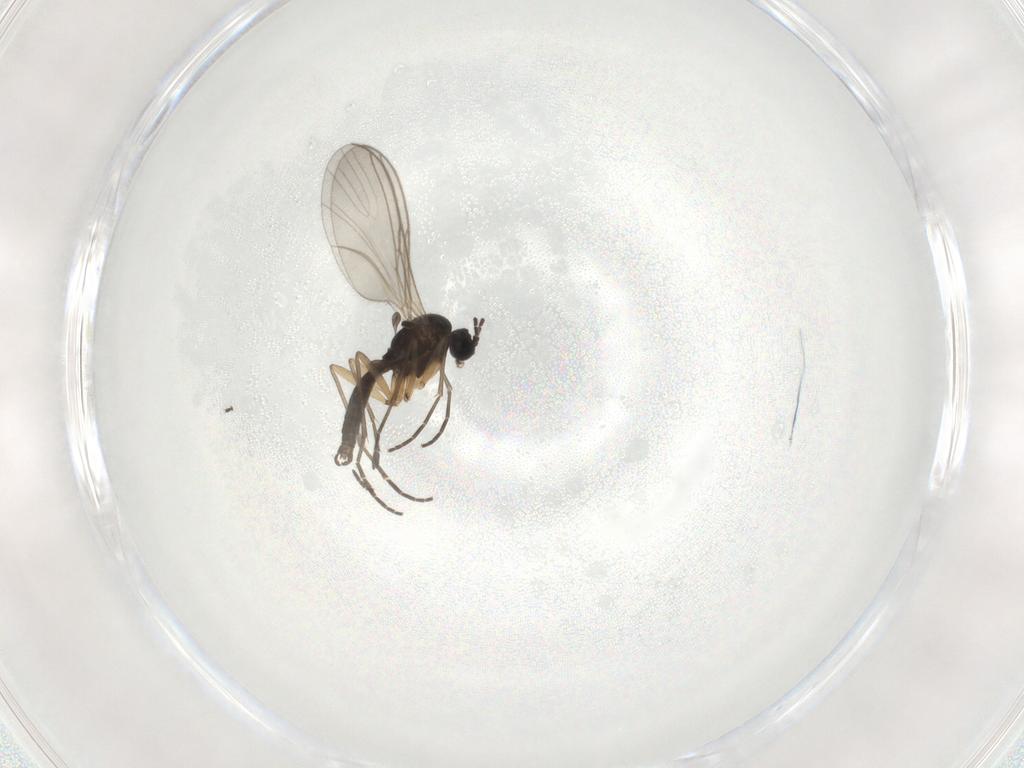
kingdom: Animalia
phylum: Arthropoda
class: Insecta
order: Diptera
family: Sciaridae
